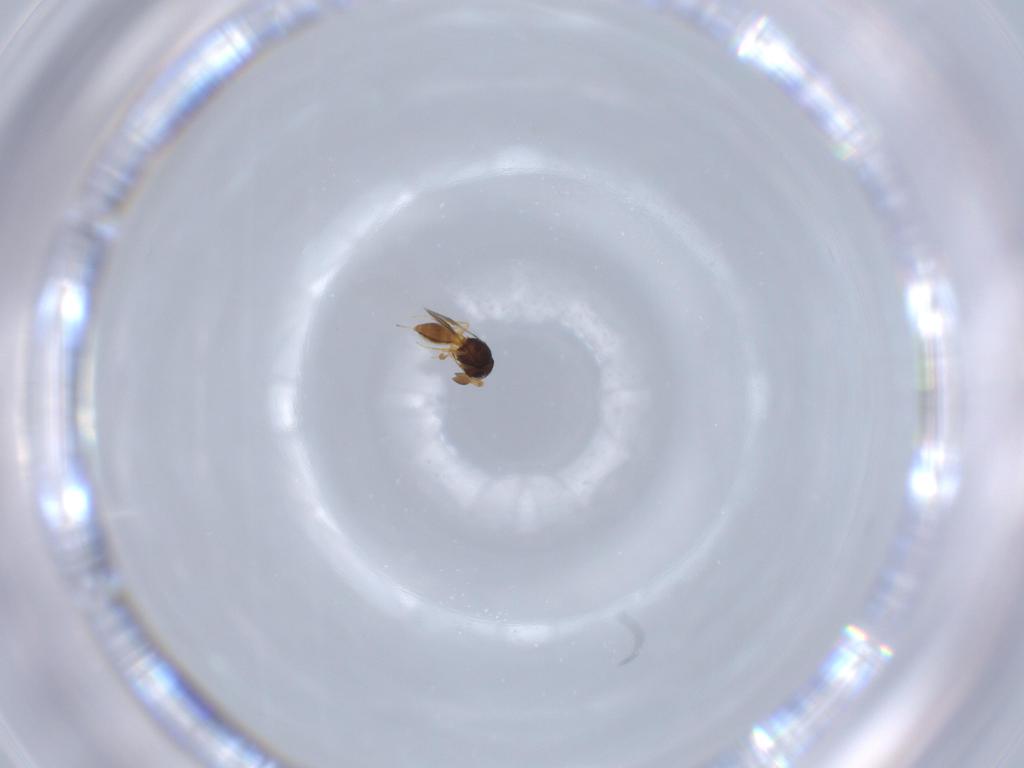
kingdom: Animalia
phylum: Arthropoda
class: Insecta
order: Hymenoptera
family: Scelionidae
